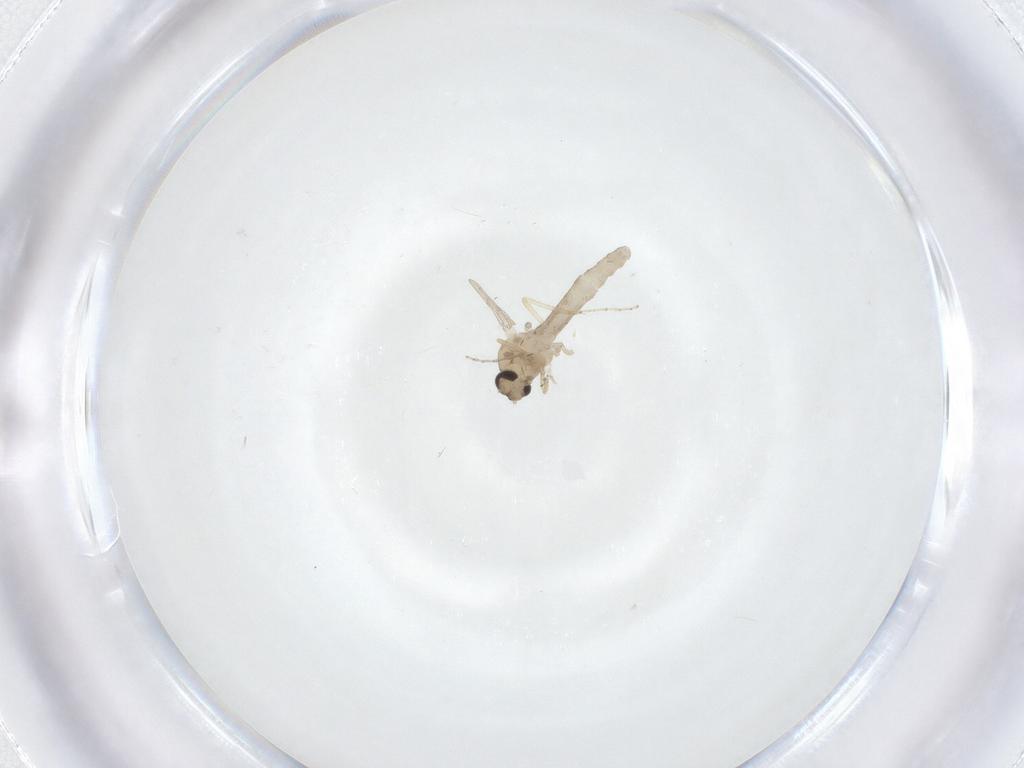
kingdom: Animalia
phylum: Arthropoda
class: Insecta
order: Diptera
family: Ceratopogonidae
